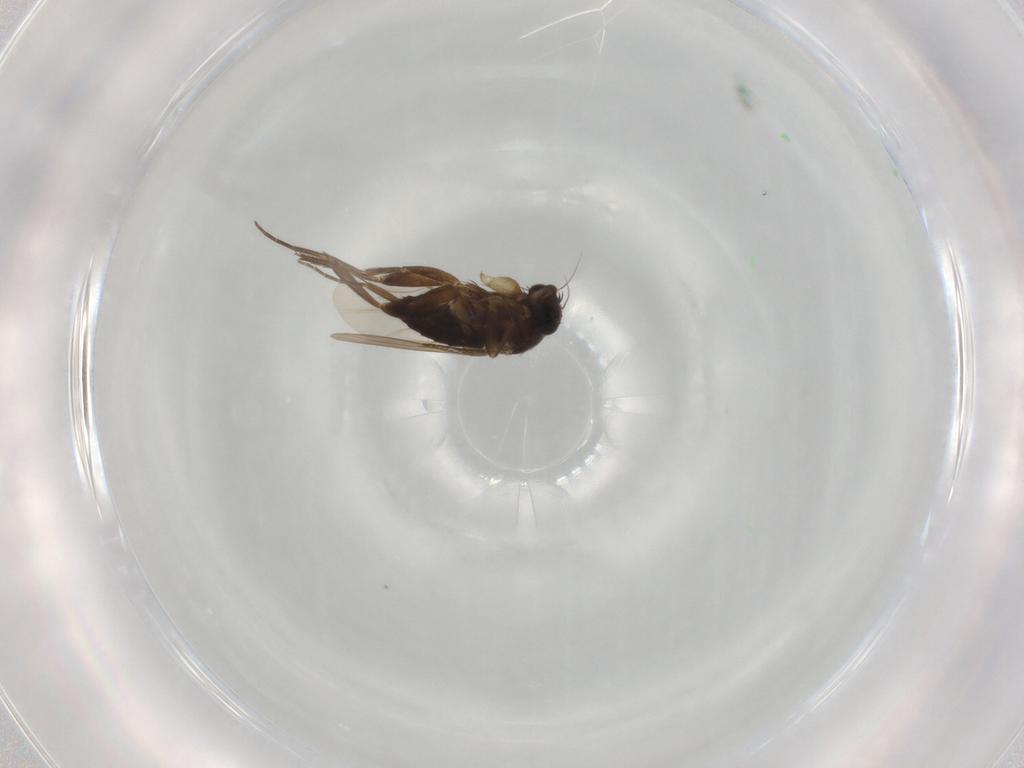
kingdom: Animalia
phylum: Arthropoda
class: Insecta
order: Diptera
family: Phoridae
